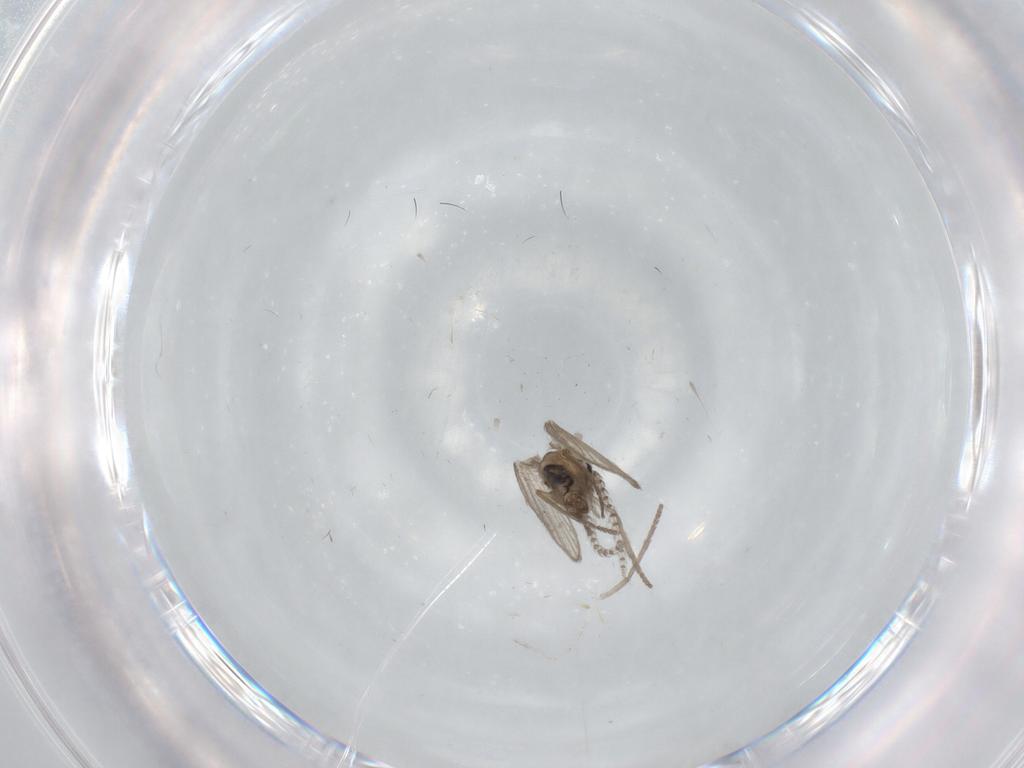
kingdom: Animalia
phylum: Arthropoda
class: Insecta
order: Diptera
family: Psychodidae
